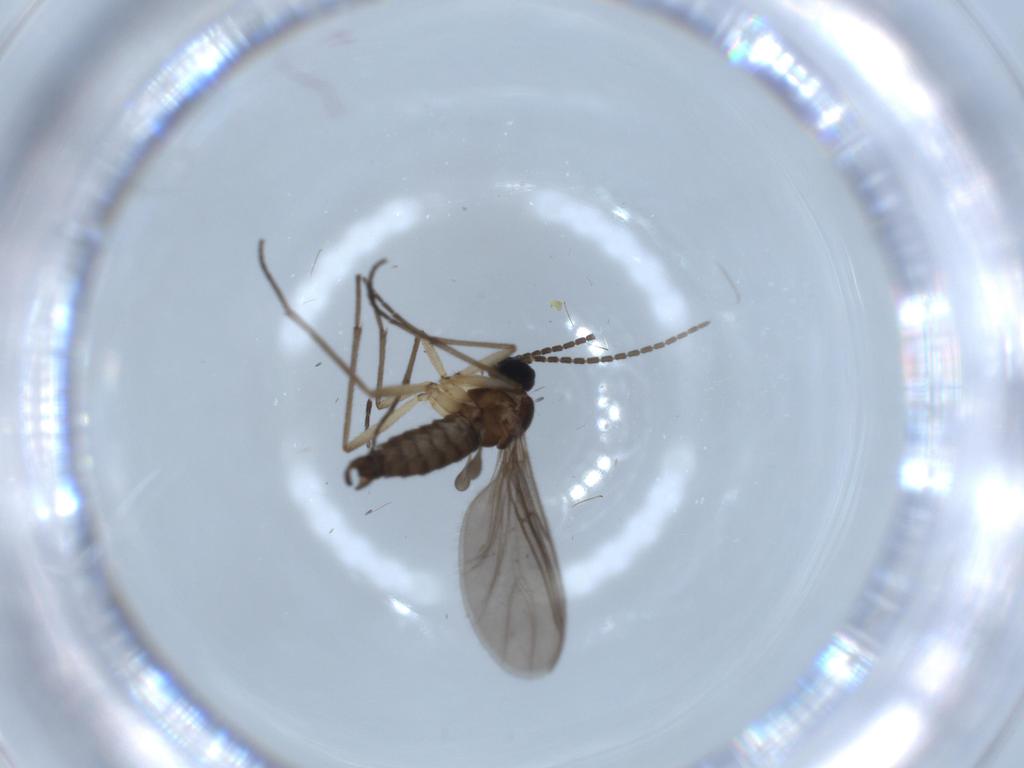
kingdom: Animalia
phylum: Arthropoda
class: Insecta
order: Diptera
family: Sciaridae
